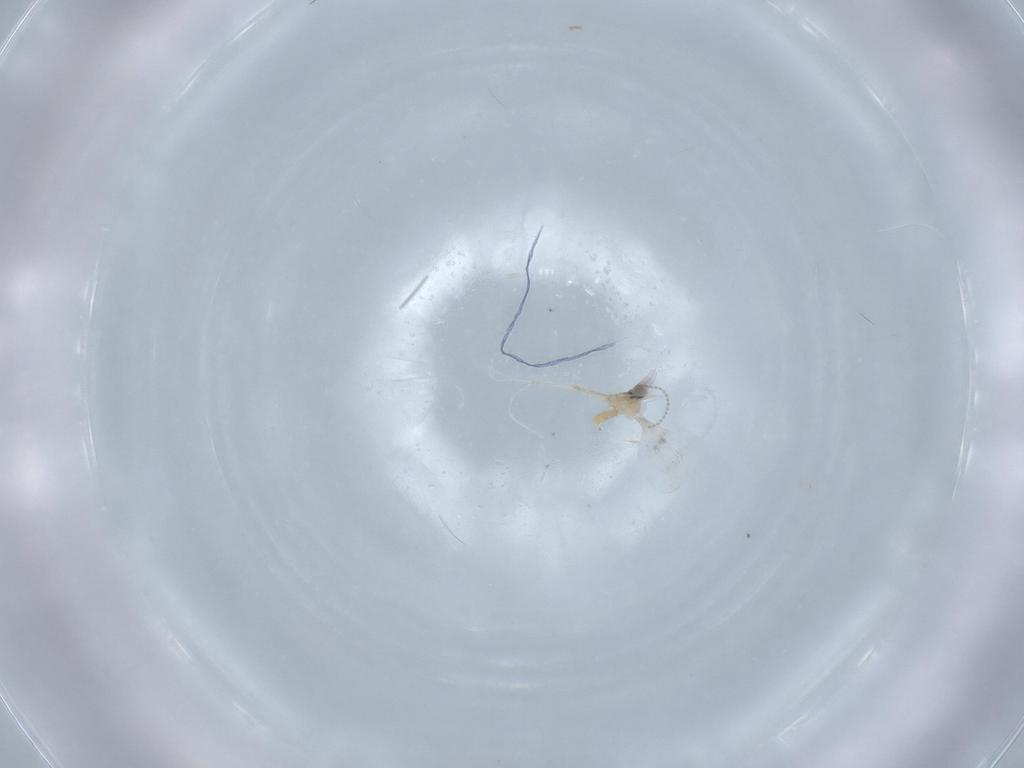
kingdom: Animalia
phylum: Arthropoda
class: Insecta
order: Diptera
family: Cecidomyiidae
